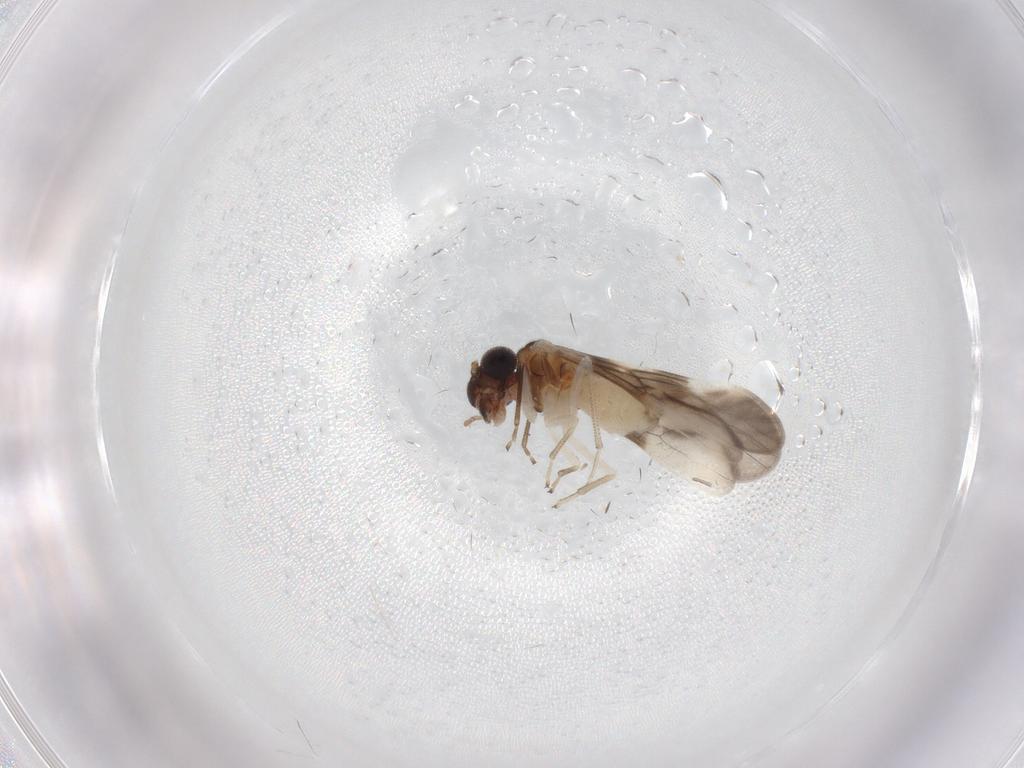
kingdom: Animalia
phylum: Arthropoda
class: Insecta
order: Psocodea
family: Caeciliusidae
